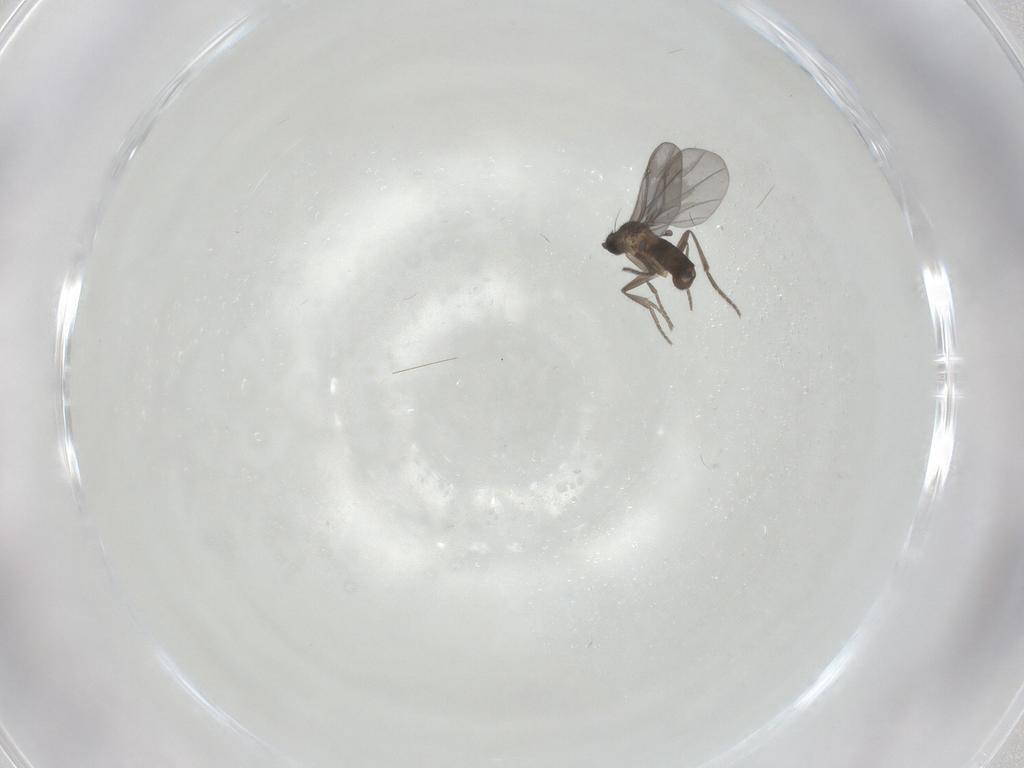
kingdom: Animalia
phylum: Arthropoda
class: Insecta
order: Diptera
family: Phoridae
